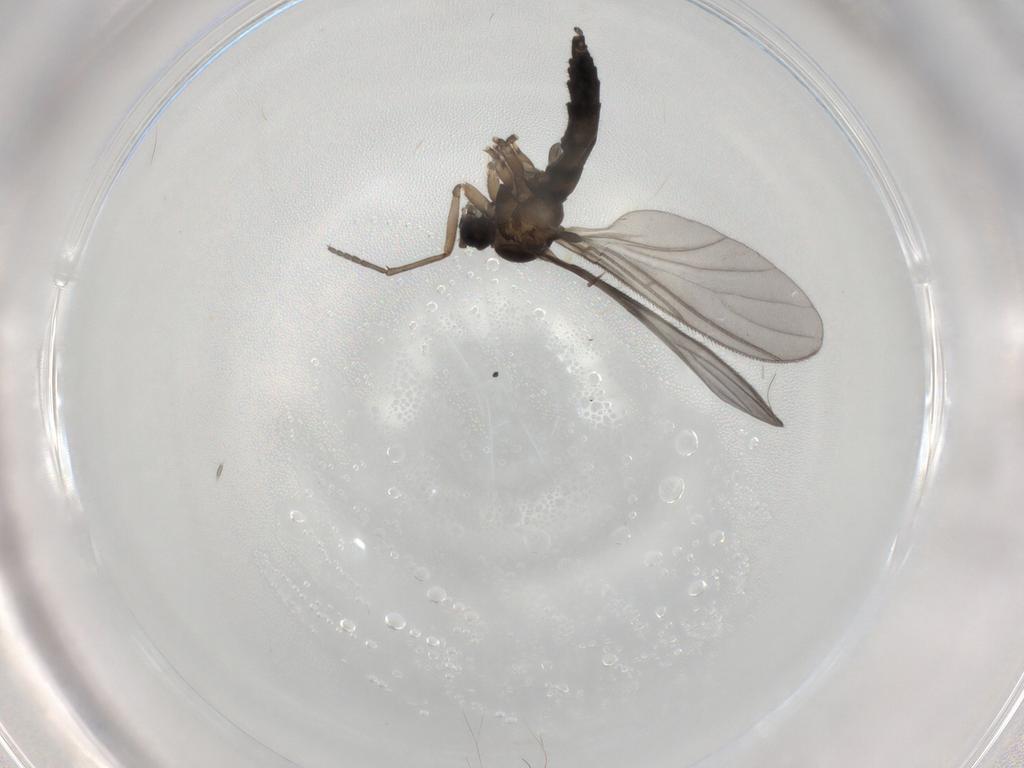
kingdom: Animalia
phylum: Arthropoda
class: Insecta
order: Diptera
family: Sciaridae
